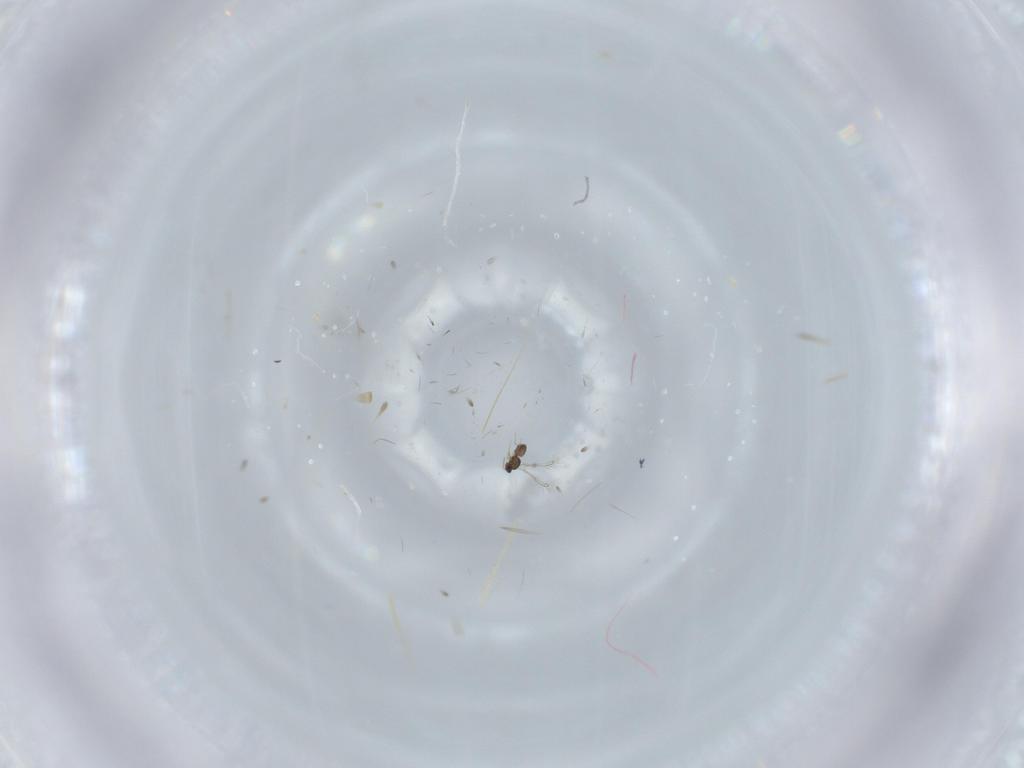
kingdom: Animalia
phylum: Arthropoda
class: Insecta
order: Hymenoptera
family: Mymaridae
